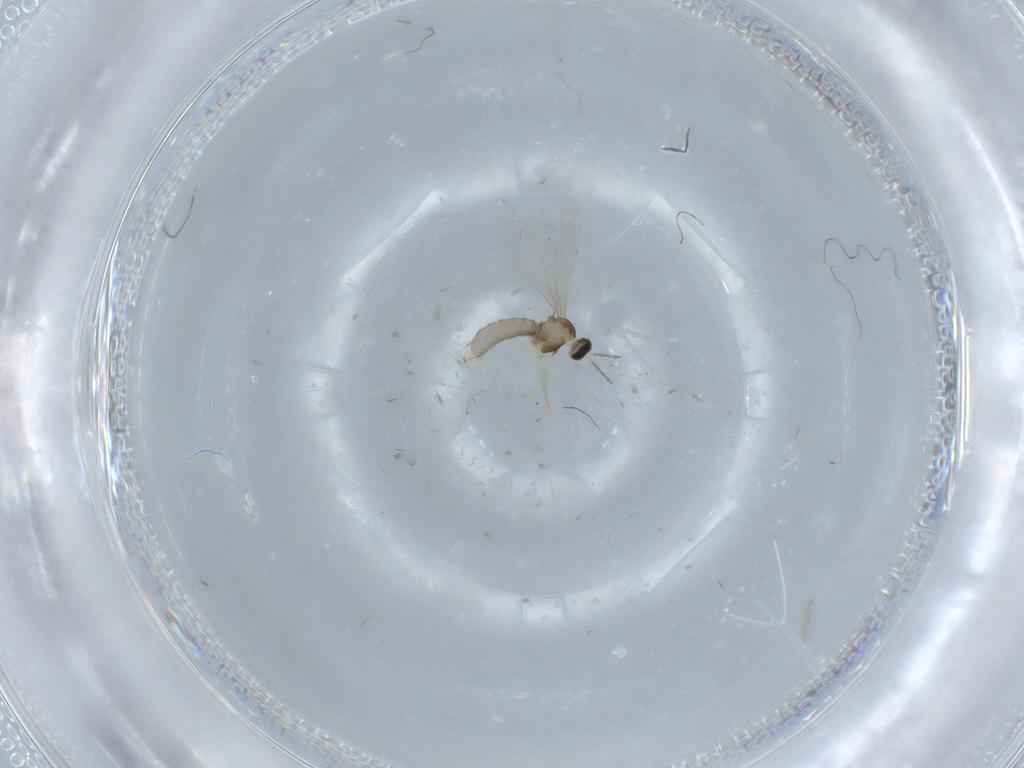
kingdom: Animalia
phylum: Arthropoda
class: Insecta
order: Diptera
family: Cecidomyiidae
